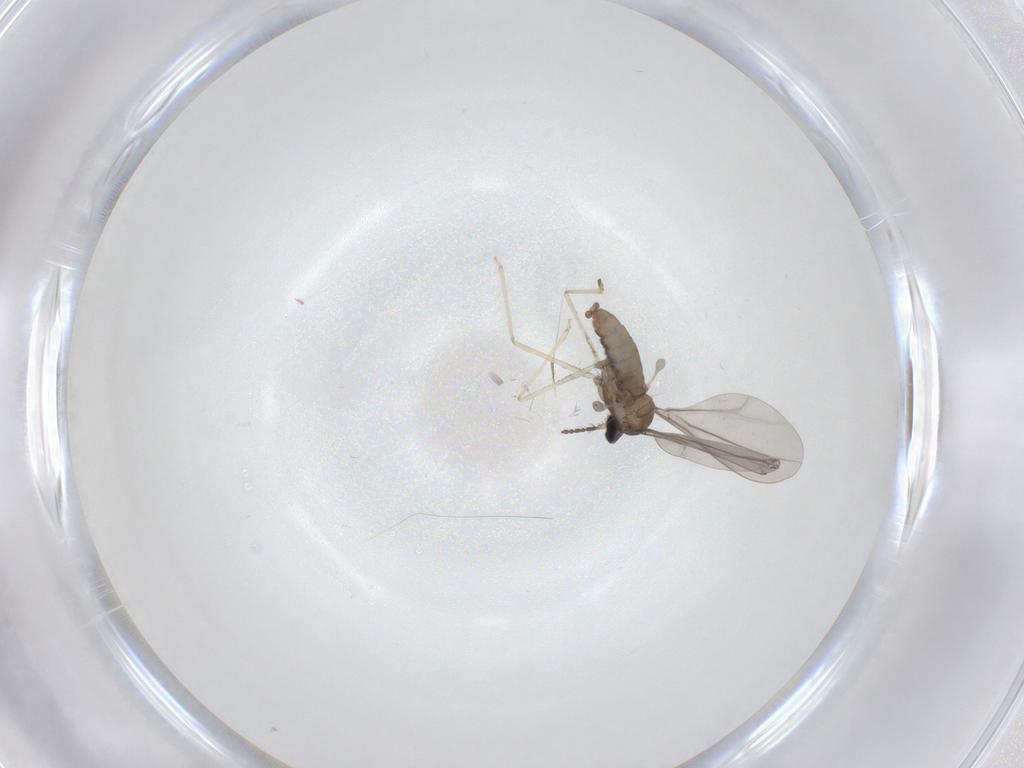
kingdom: Animalia
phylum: Arthropoda
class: Insecta
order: Diptera
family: Cecidomyiidae
